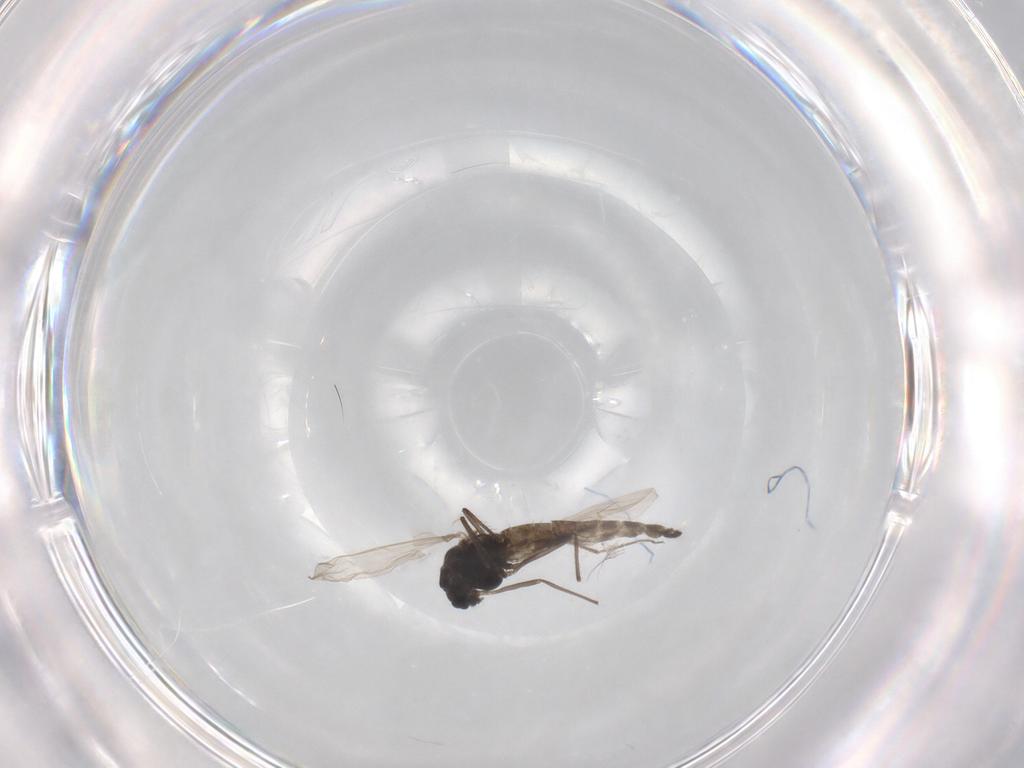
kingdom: Animalia
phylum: Arthropoda
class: Insecta
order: Diptera
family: Chironomidae
